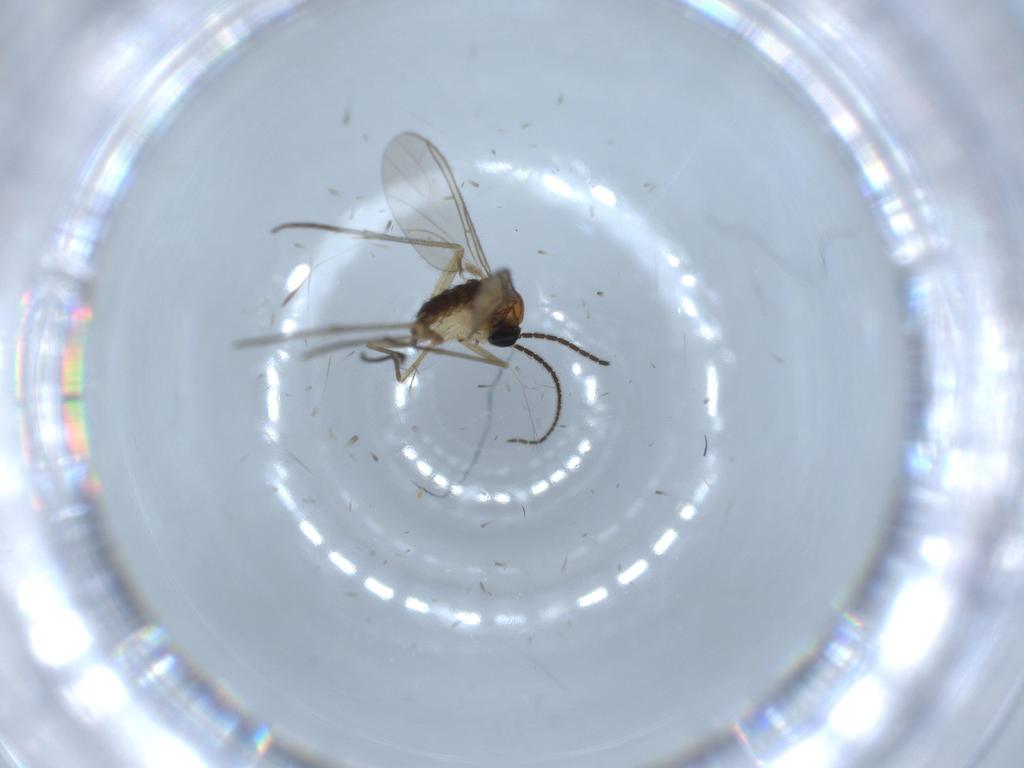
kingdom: Animalia
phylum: Arthropoda
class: Insecta
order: Diptera
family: Sciaridae
